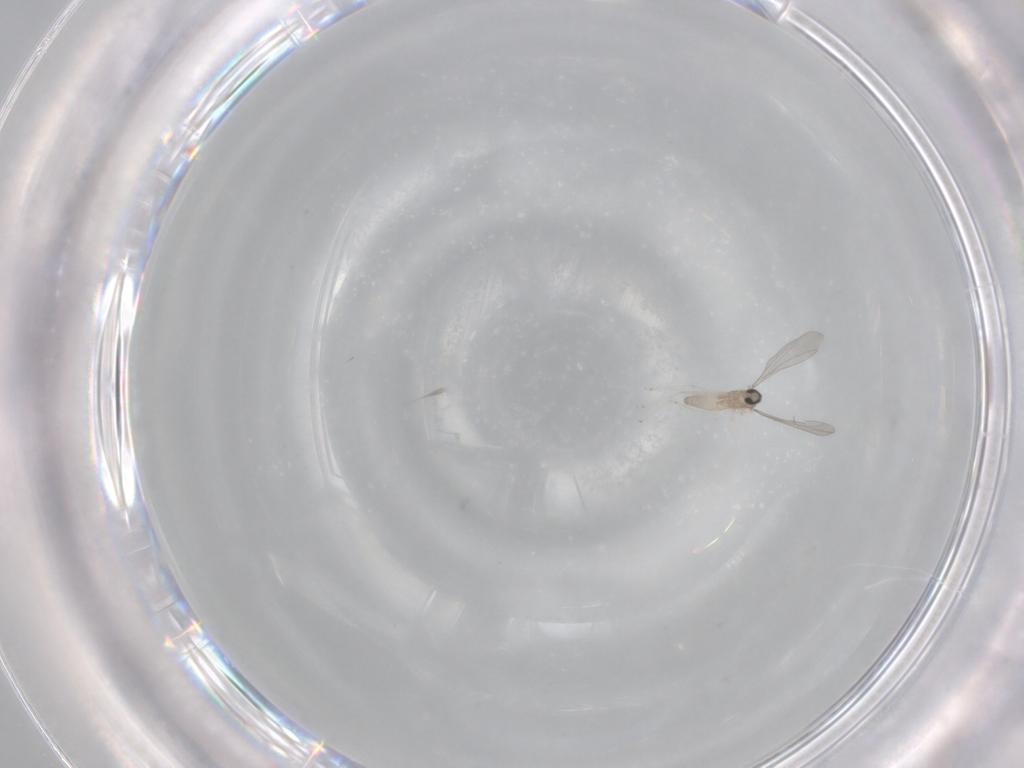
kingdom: Animalia
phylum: Arthropoda
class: Insecta
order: Diptera
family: Cecidomyiidae
